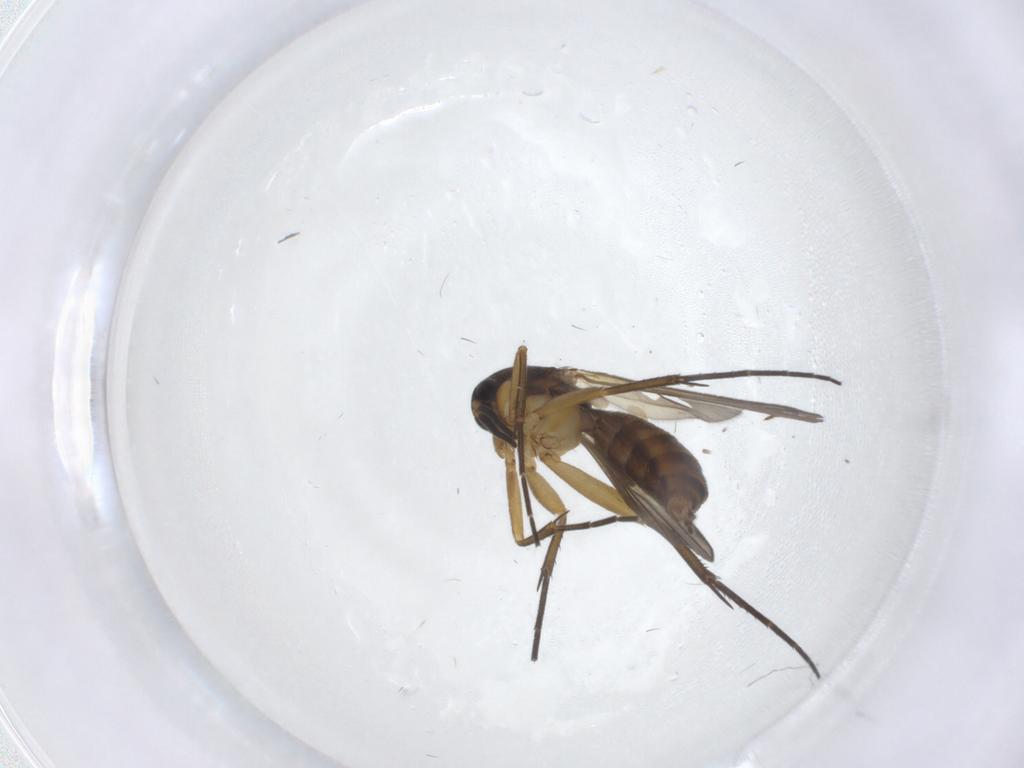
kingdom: Animalia
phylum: Arthropoda
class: Insecta
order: Diptera
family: Mycetophilidae
